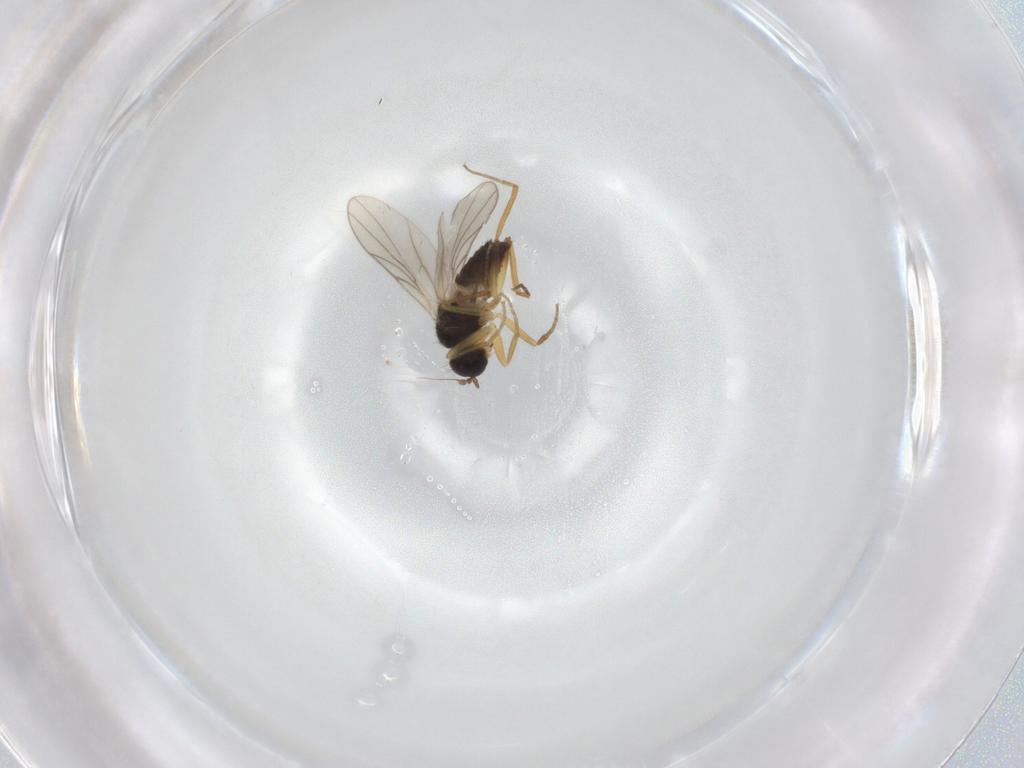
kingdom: Animalia
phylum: Arthropoda
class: Insecta
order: Diptera
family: Hybotidae
